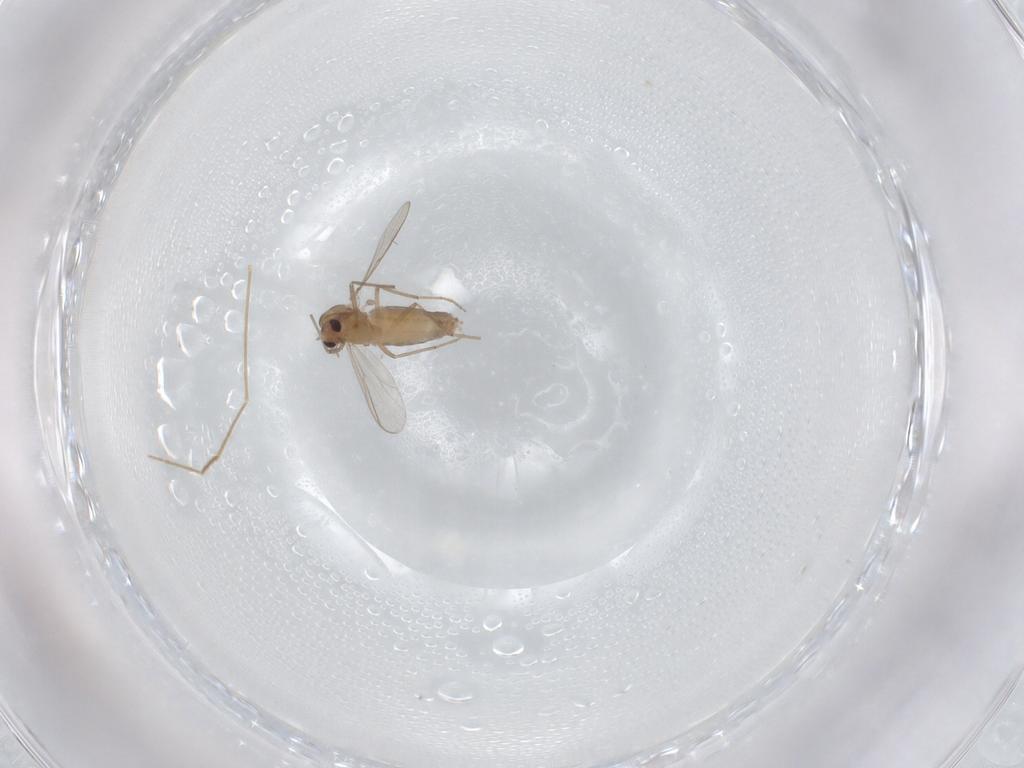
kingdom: Animalia
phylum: Arthropoda
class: Insecta
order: Diptera
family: Chironomidae
